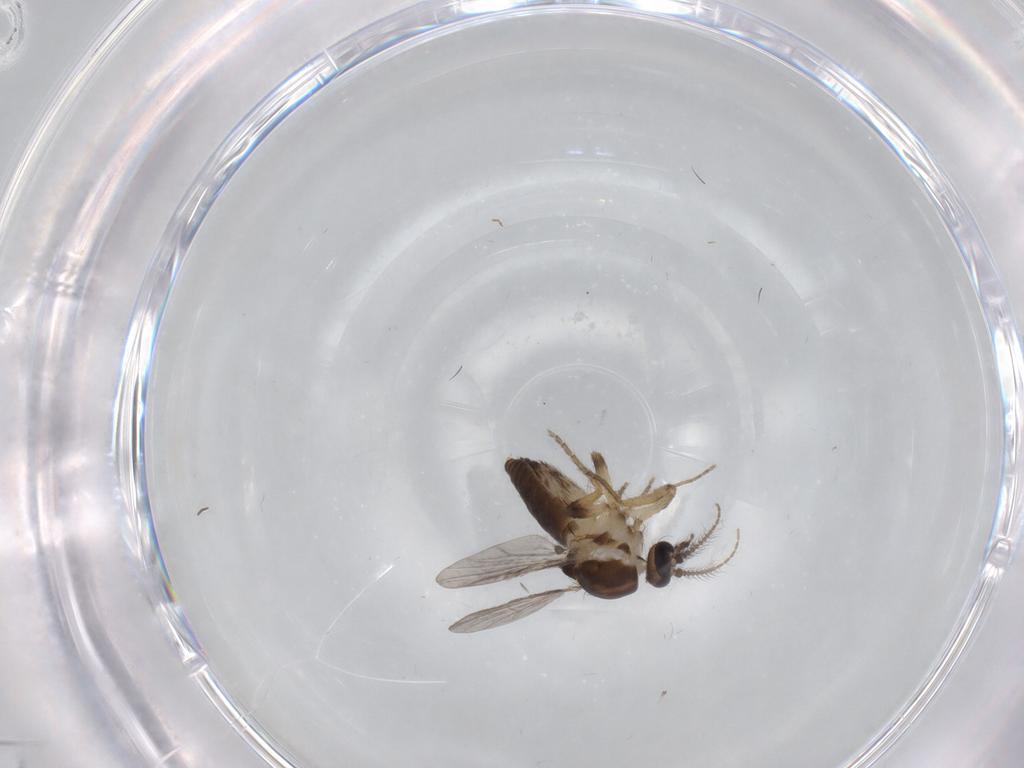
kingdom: Animalia
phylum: Arthropoda
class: Insecta
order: Diptera
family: Ceratopogonidae
